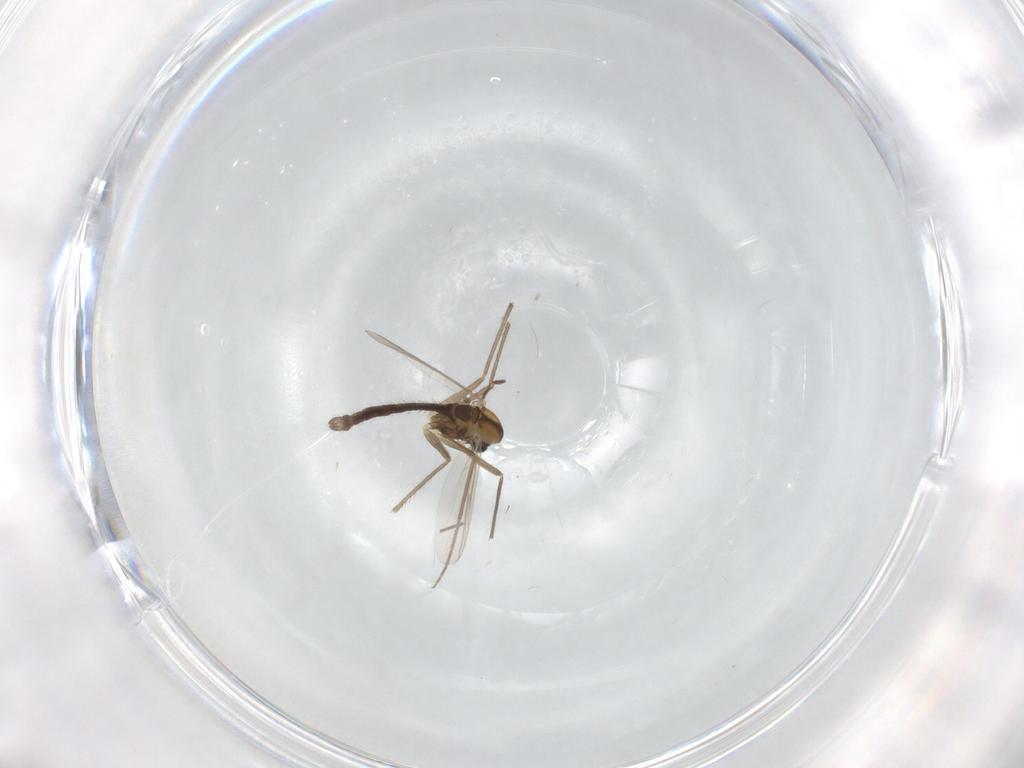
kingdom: Animalia
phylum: Arthropoda
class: Insecta
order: Diptera
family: Chironomidae
